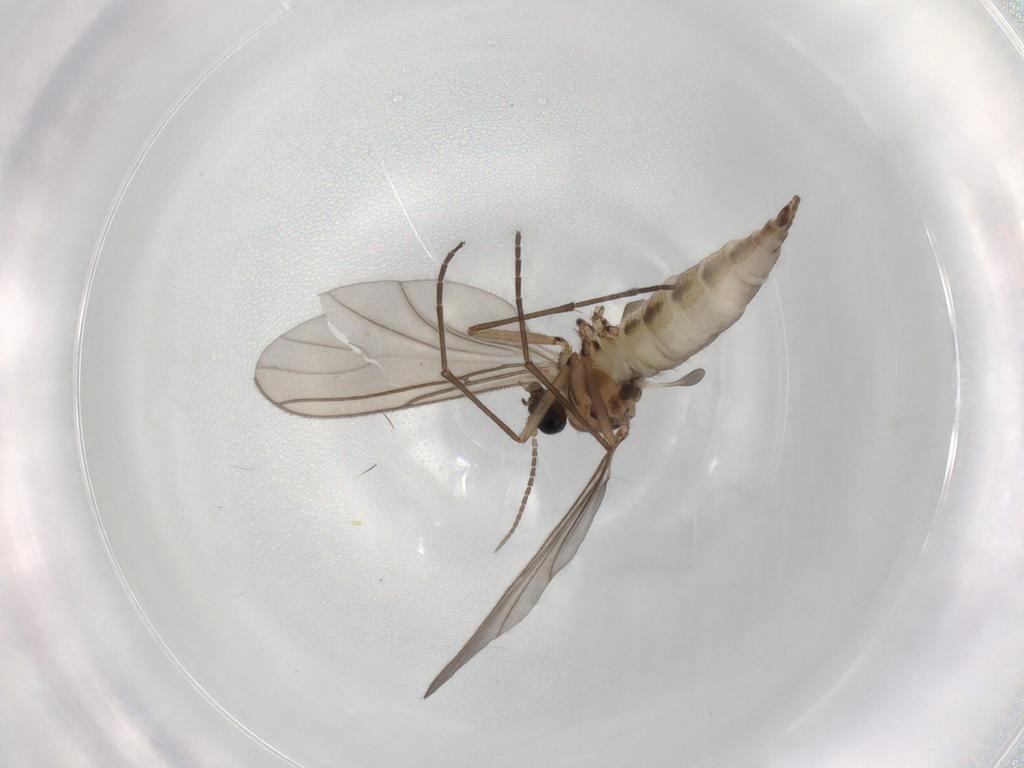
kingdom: Animalia
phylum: Arthropoda
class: Insecta
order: Diptera
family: Sciaridae
